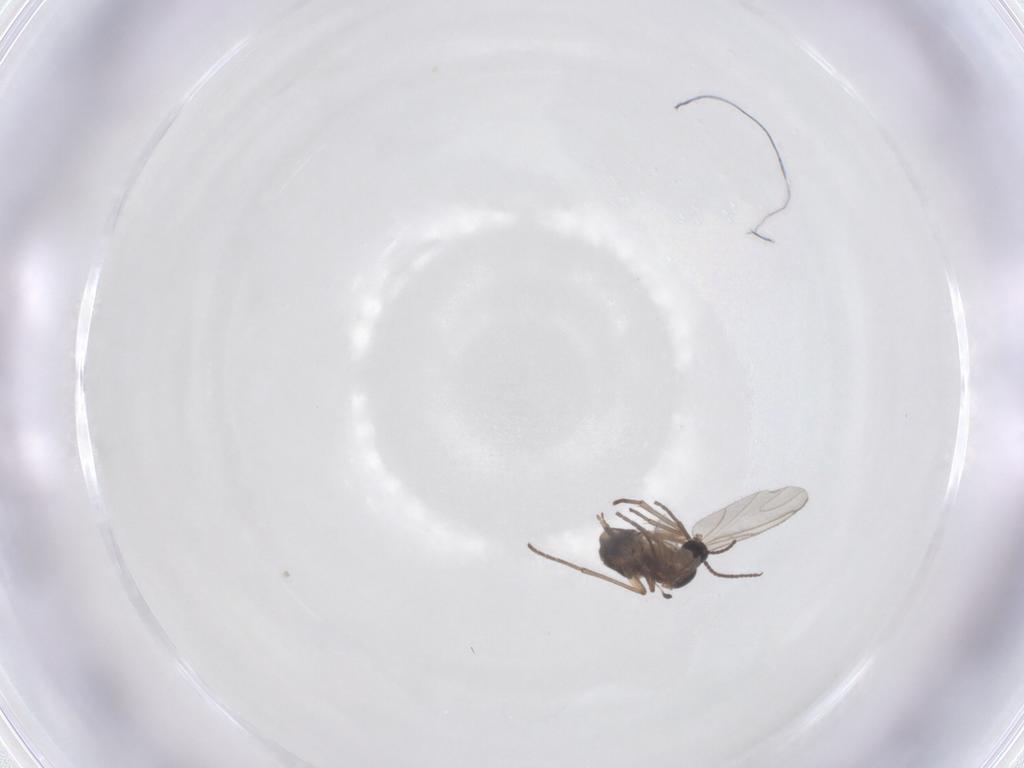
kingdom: Animalia
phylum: Arthropoda
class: Insecta
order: Diptera
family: Sciaridae
